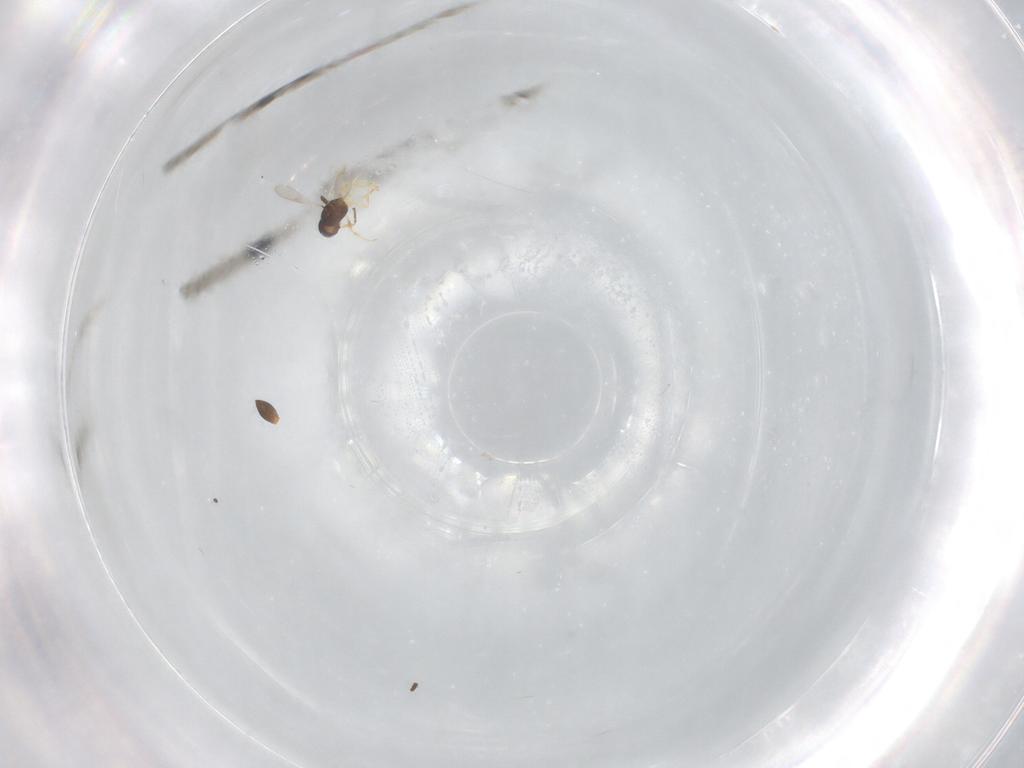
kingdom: Animalia
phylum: Arthropoda
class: Insecta
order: Hymenoptera
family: Scelionidae
